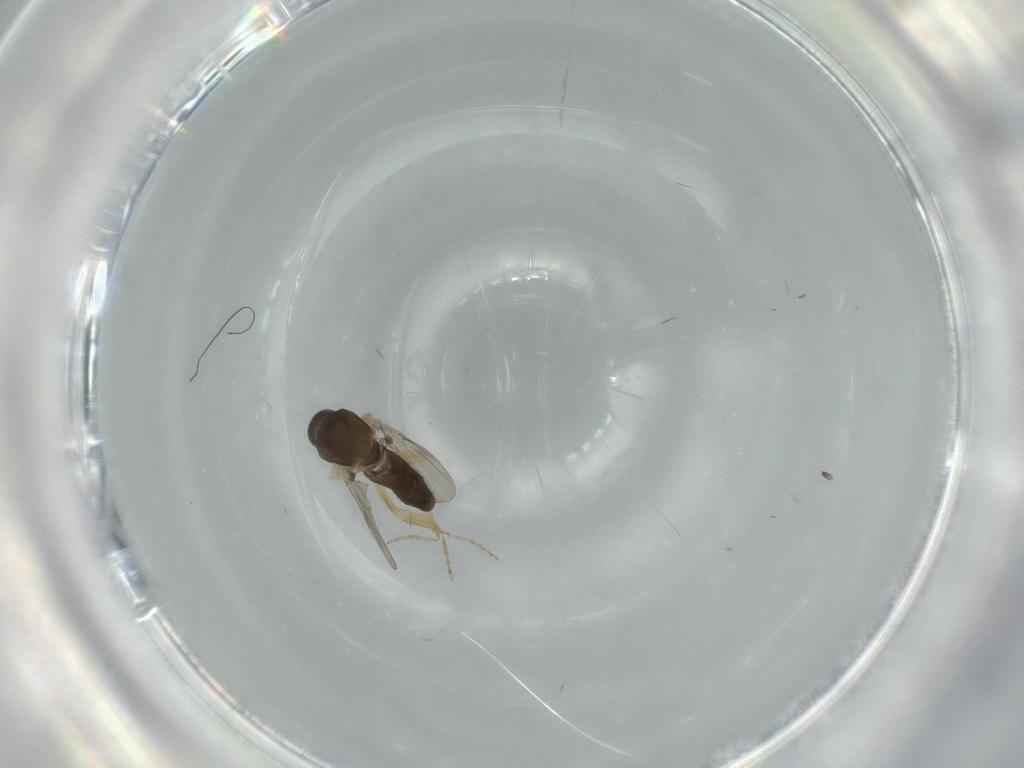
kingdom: Animalia
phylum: Arthropoda
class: Insecta
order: Diptera
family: Ceratopogonidae
